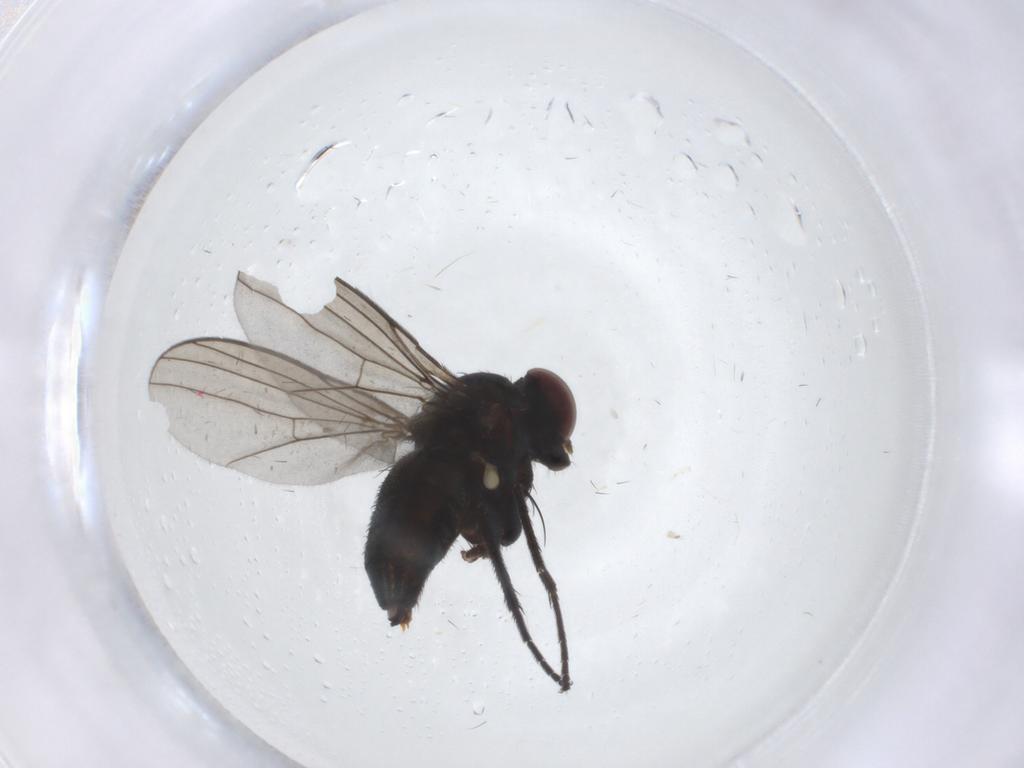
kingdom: Animalia
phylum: Arthropoda
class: Insecta
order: Diptera
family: Dolichopodidae
